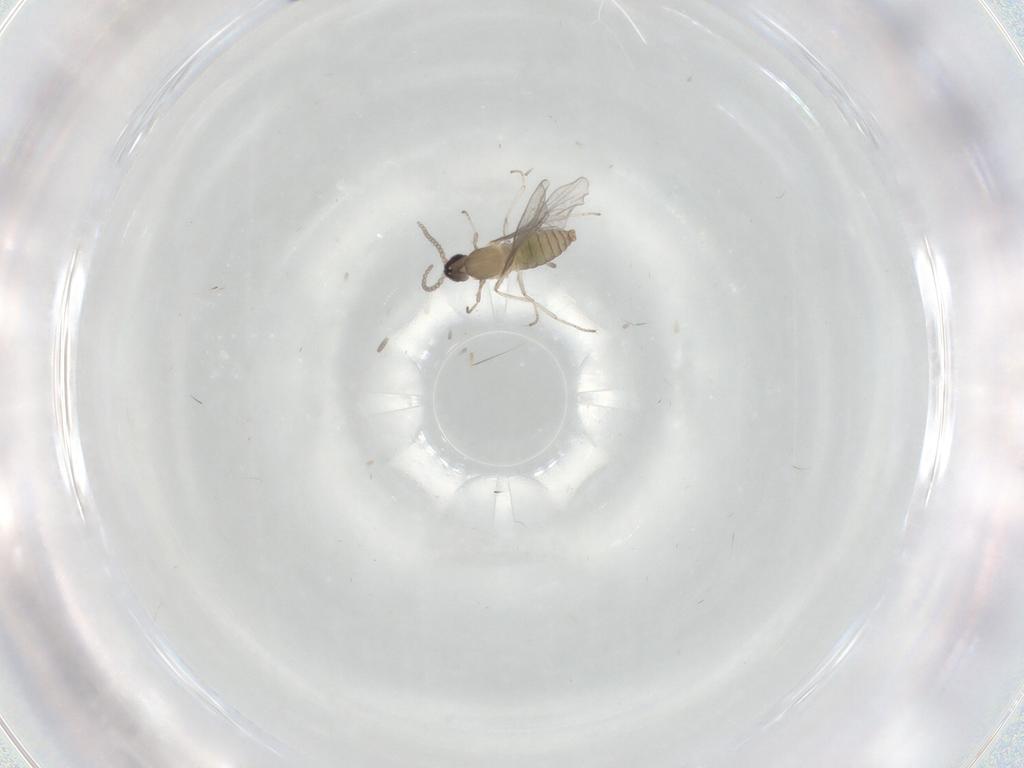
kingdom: Animalia
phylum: Arthropoda
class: Insecta
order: Diptera
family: Cecidomyiidae
